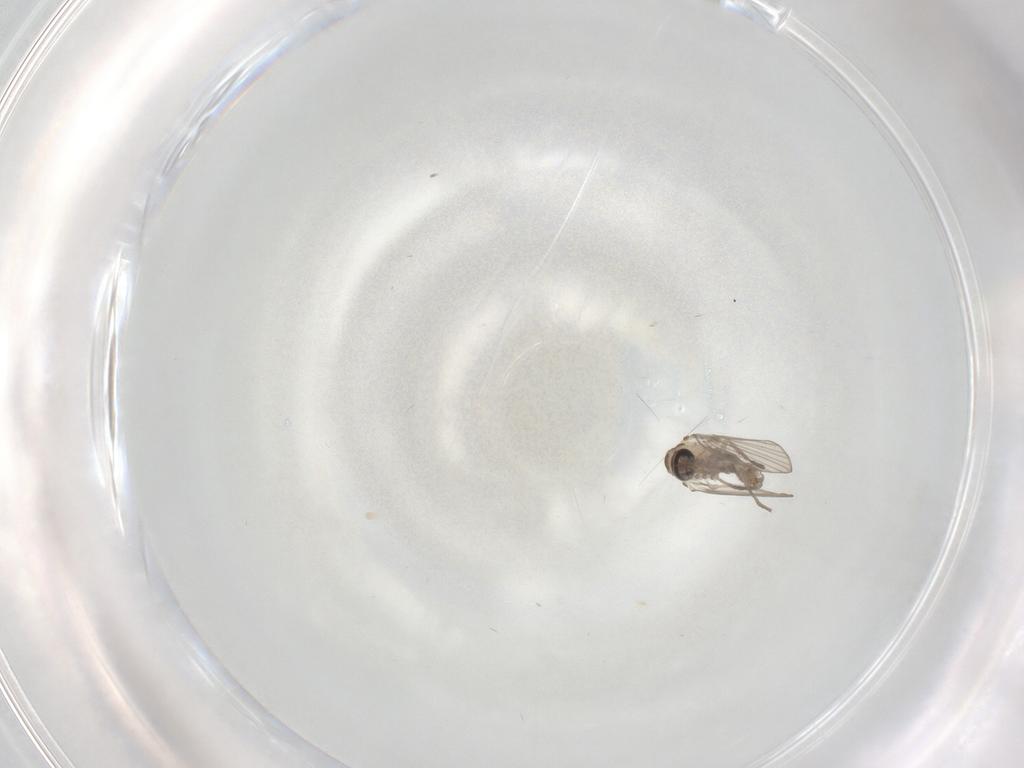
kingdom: Animalia
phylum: Arthropoda
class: Insecta
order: Diptera
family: Psychodidae
